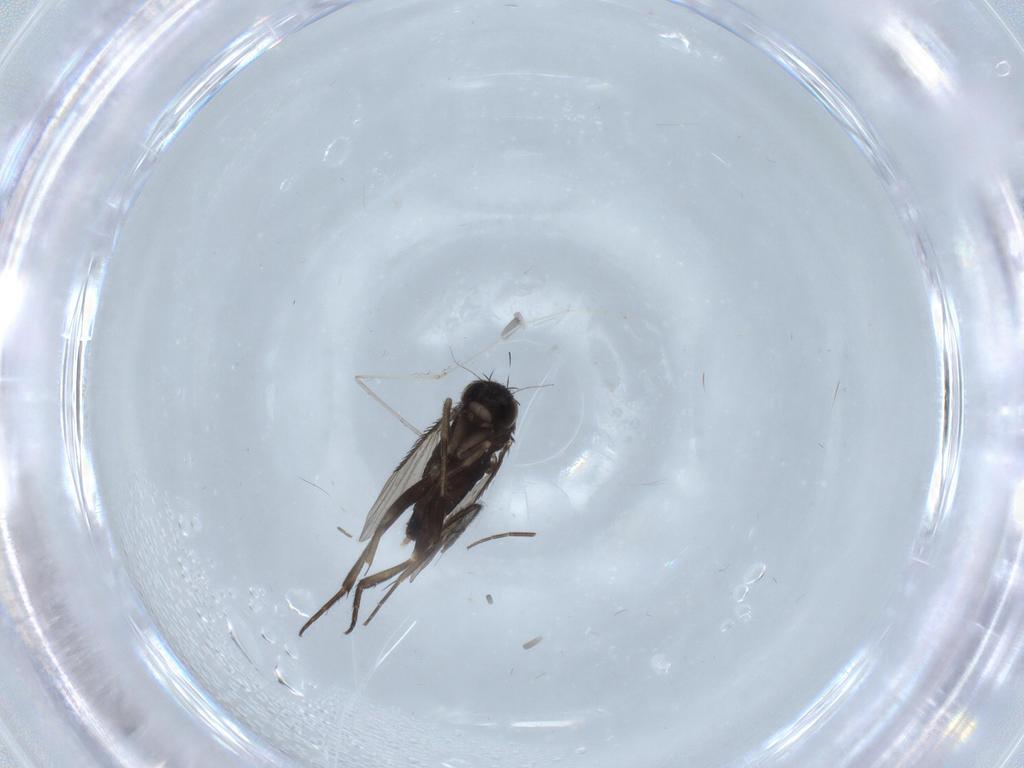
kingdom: Animalia
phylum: Arthropoda
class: Insecta
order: Diptera
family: Phoridae
